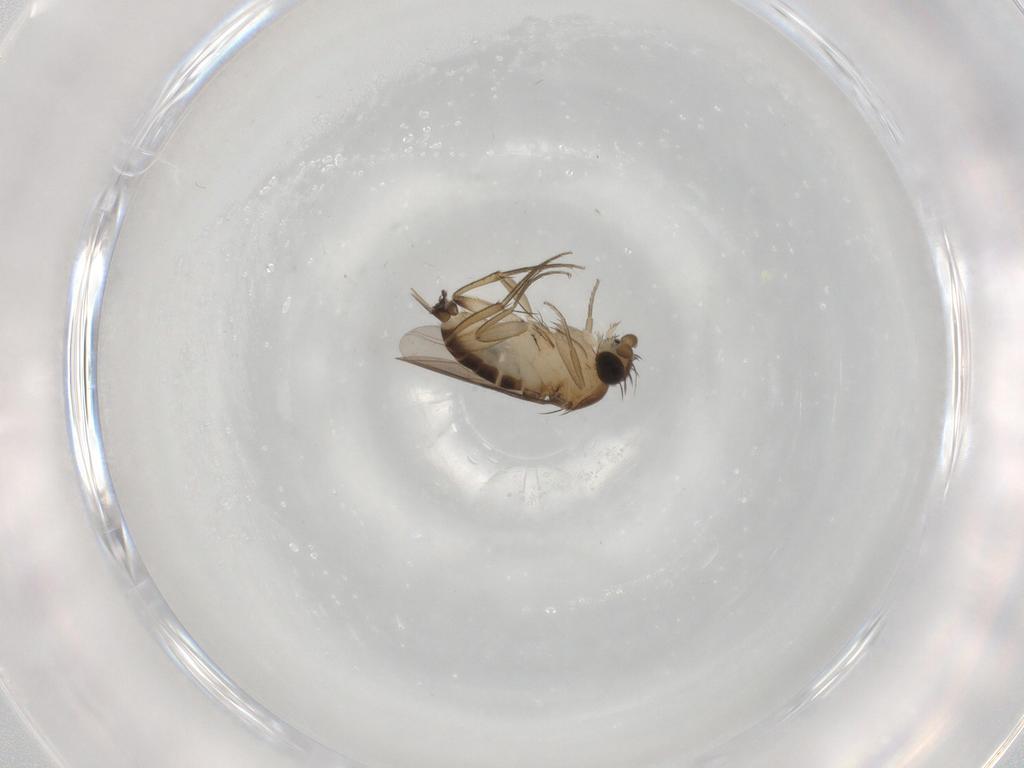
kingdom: Animalia
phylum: Arthropoda
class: Insecta
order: Diptera
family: Phoridae
